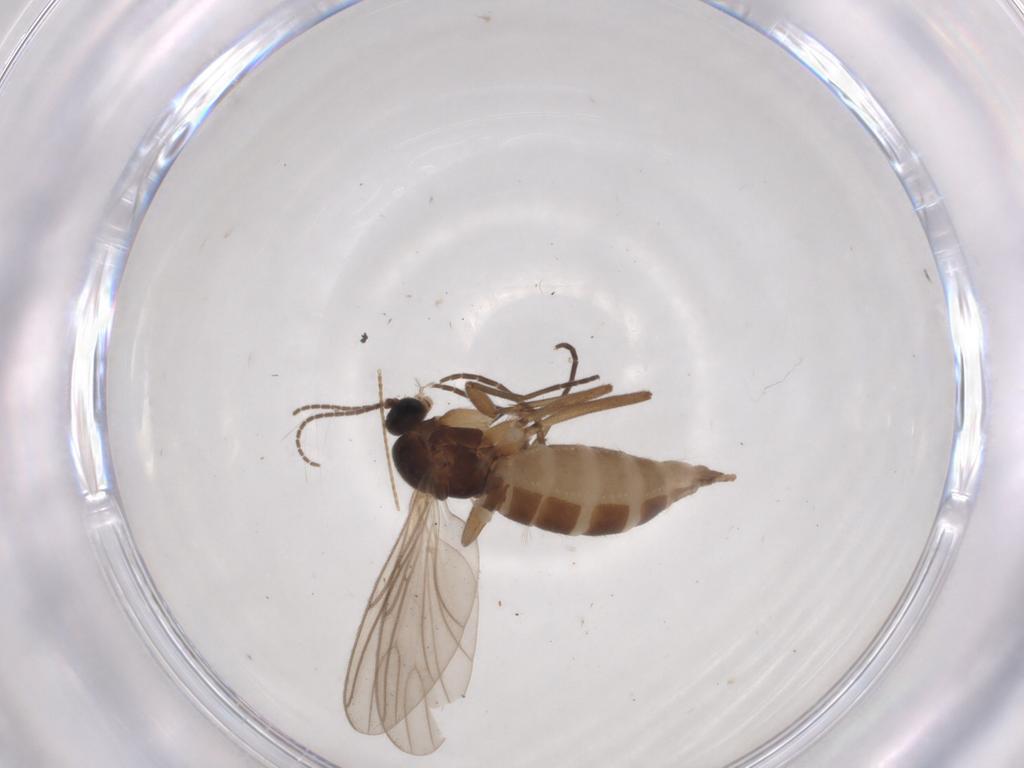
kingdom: Animalia
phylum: Arthropoda
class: Insecta
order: Diptera
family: Sciaridae
